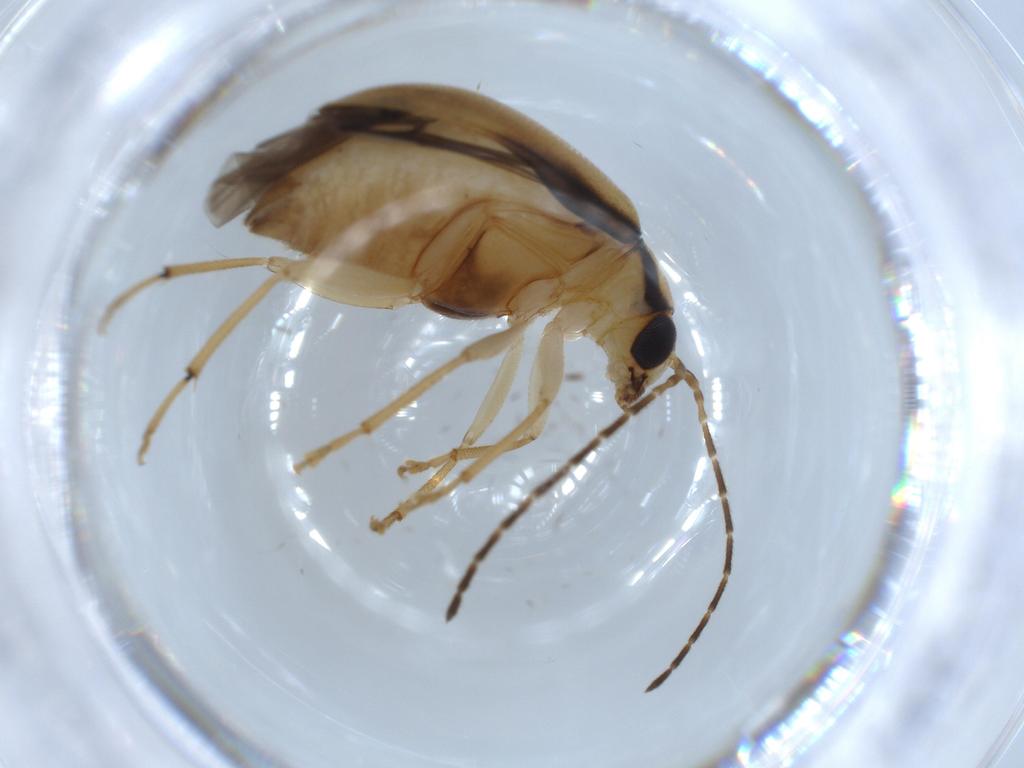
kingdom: Animalia
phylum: Arthropoda
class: Insecta
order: Coleoptera
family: Chrysomelidae
